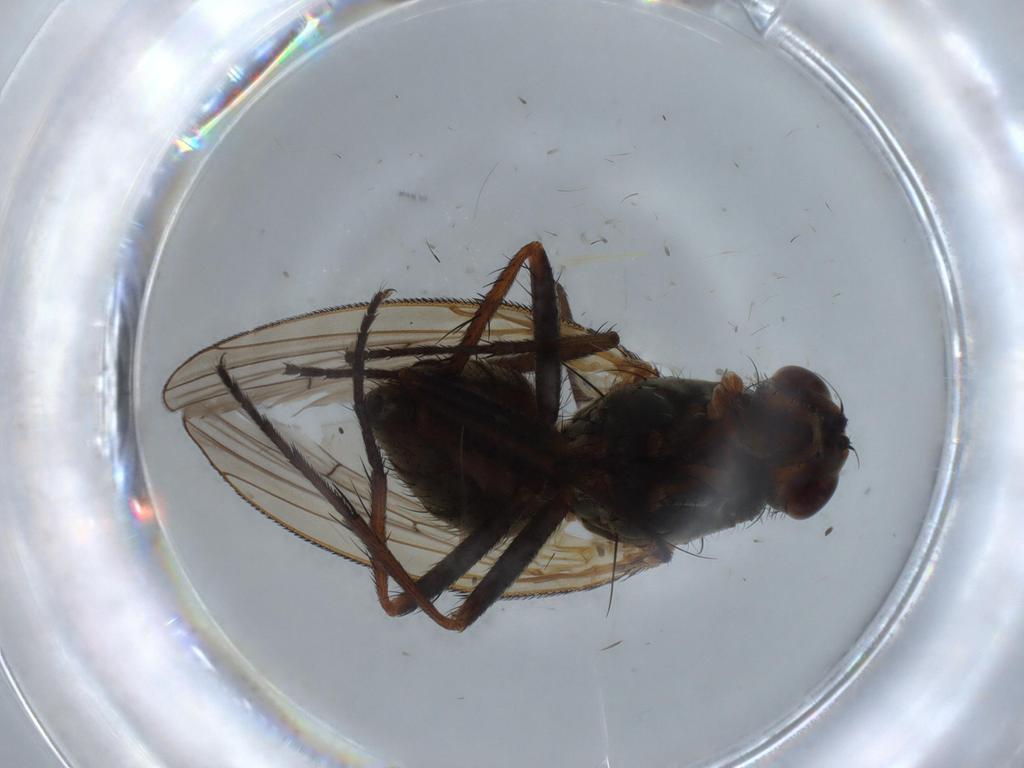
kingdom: Animalia
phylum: Arthropoda
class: Insecta
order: Diptera
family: Anthomyiidae
